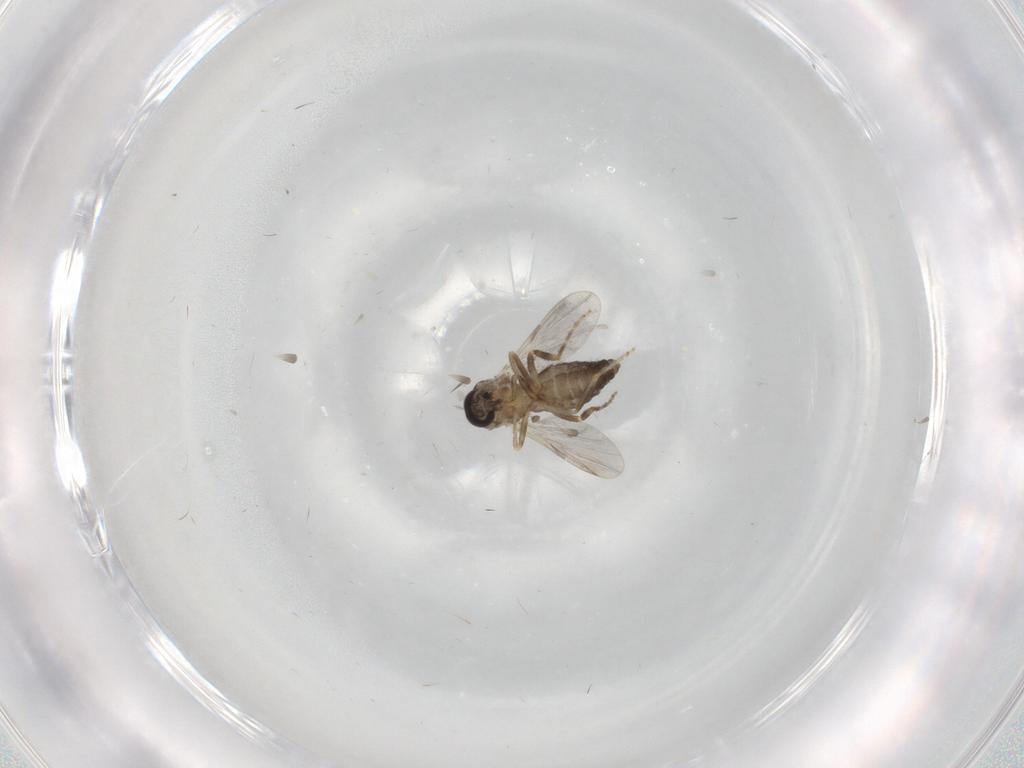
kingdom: Animalia
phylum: Arthropoda
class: Insecta
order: Diptera
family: Ceratopogonidae
